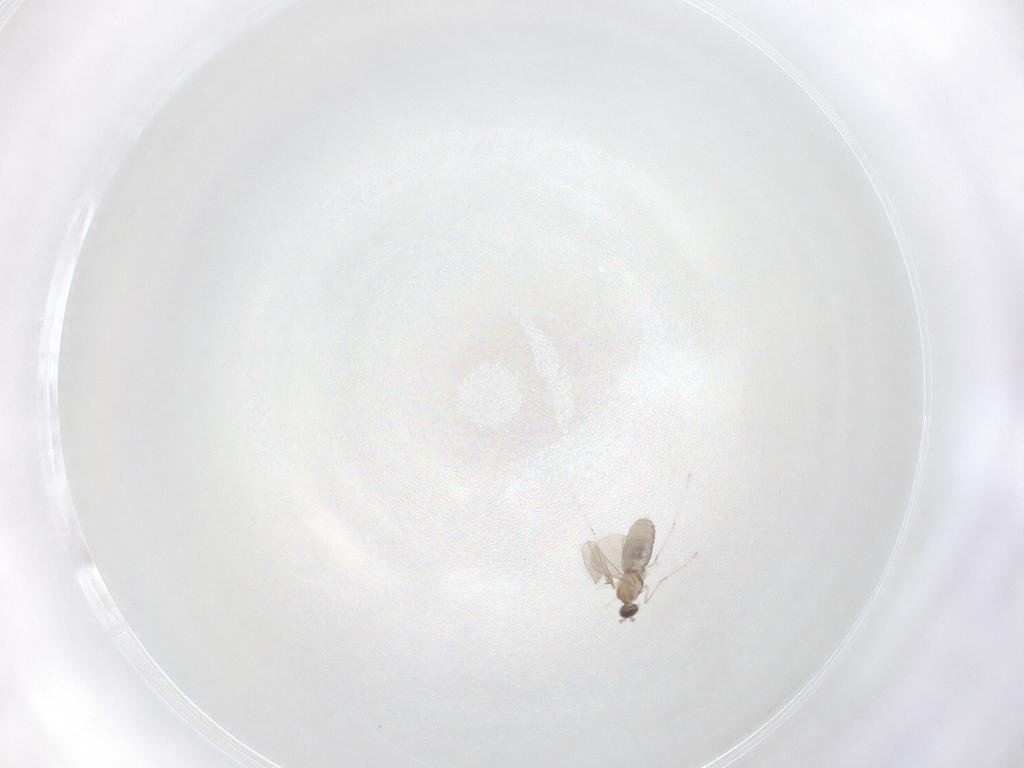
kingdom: Animalia
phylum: Arthropoda
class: Insecta
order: Diptera
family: Cecidomyiidae
